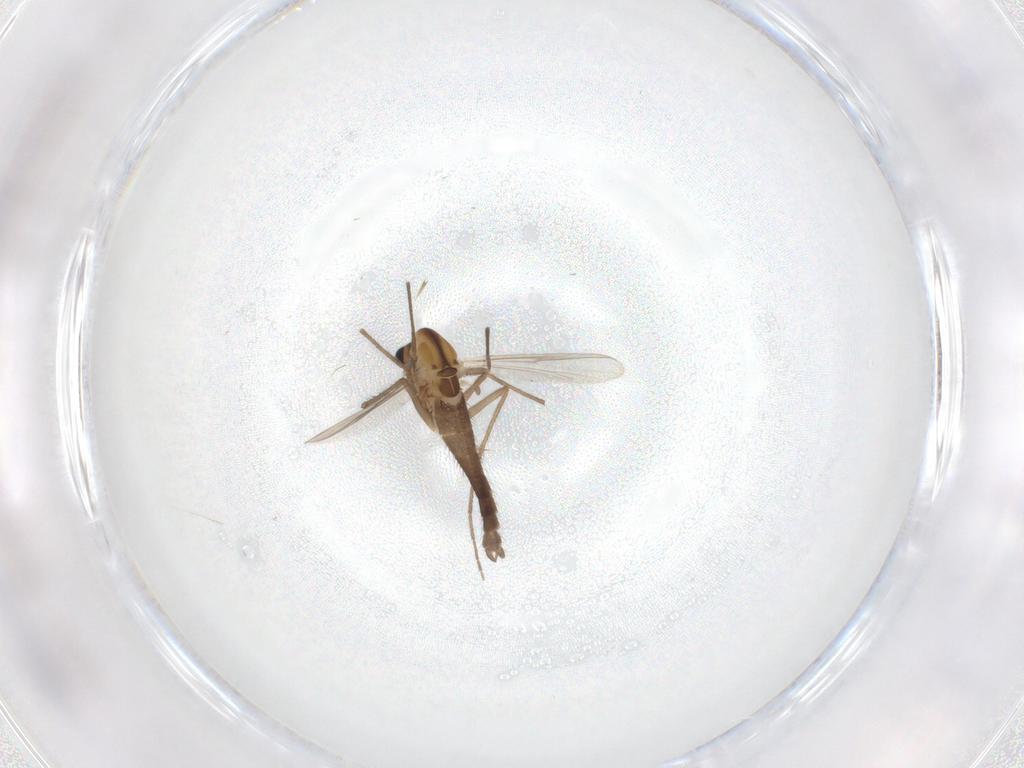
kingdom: Animalia
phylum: Arthropoda
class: Insecta
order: Diptera
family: Chironomidae
